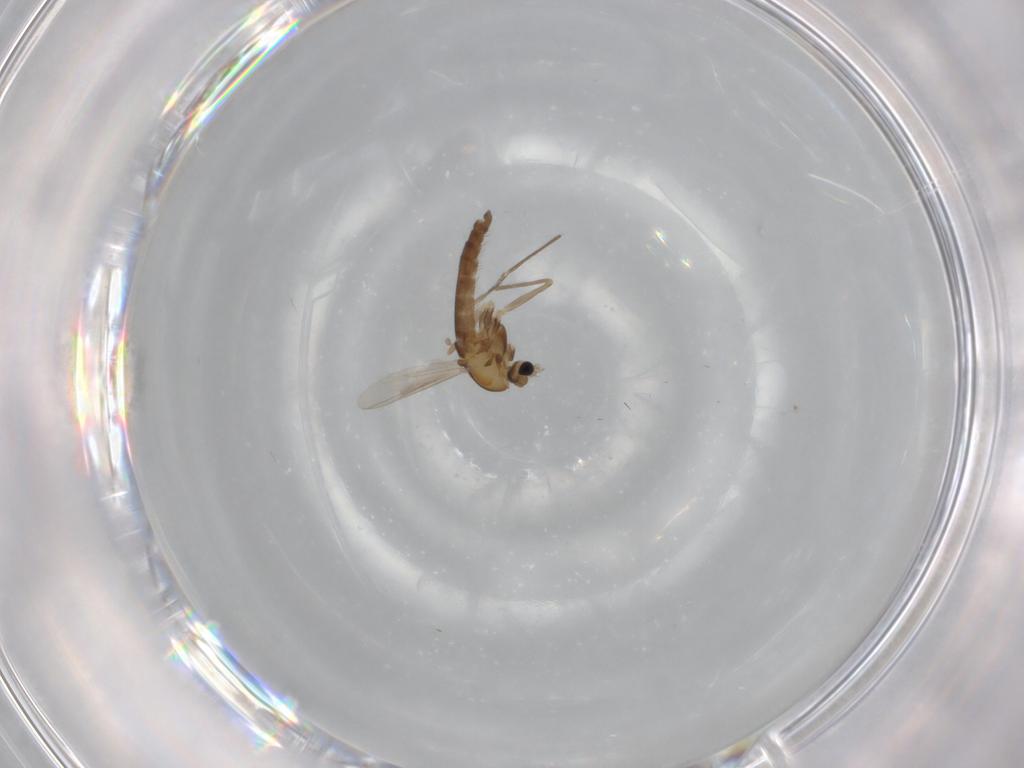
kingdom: Animalia
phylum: Arthropoda
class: Insecta
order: Diptera
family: Chironomidae
